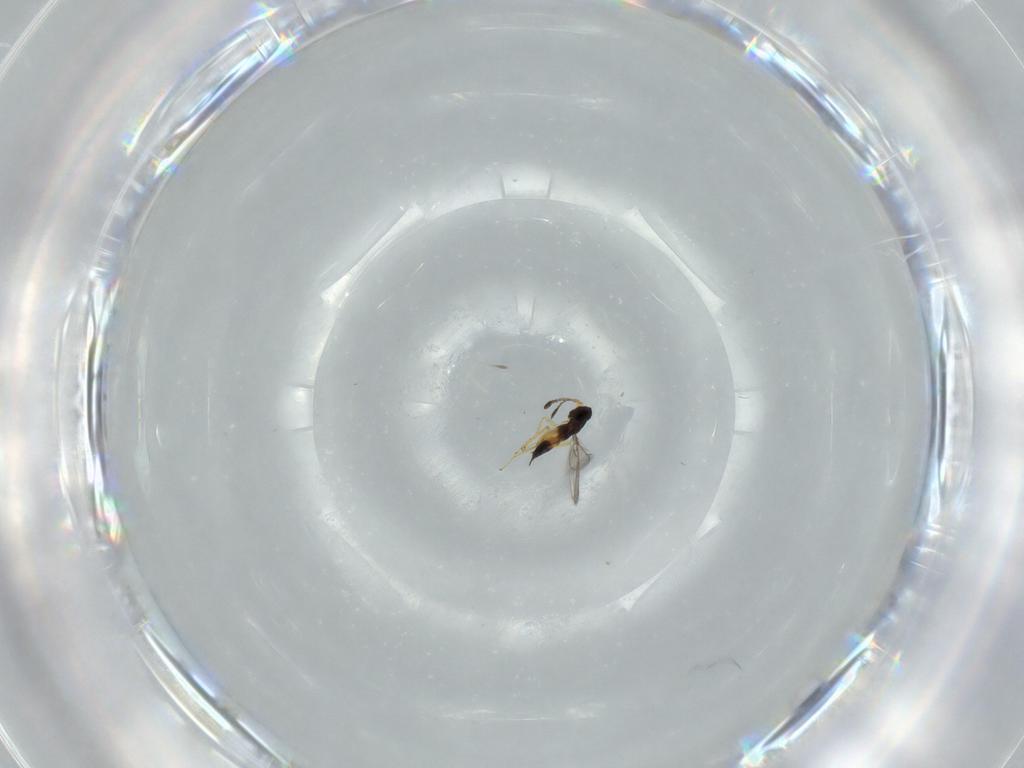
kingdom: Animalia
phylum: Arthropoda
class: Insecta
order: Hymenoptera
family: Mymaridae
